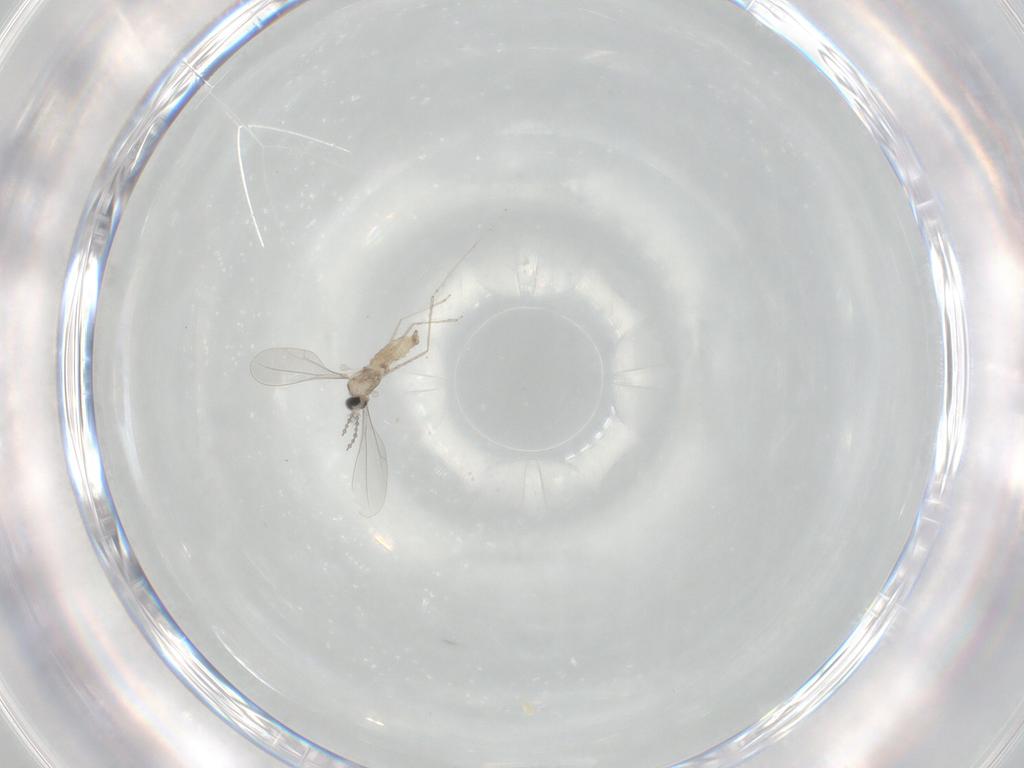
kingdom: Animalia
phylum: Arthropoda
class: Insecta
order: Diptera
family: Cecidomyiidae
